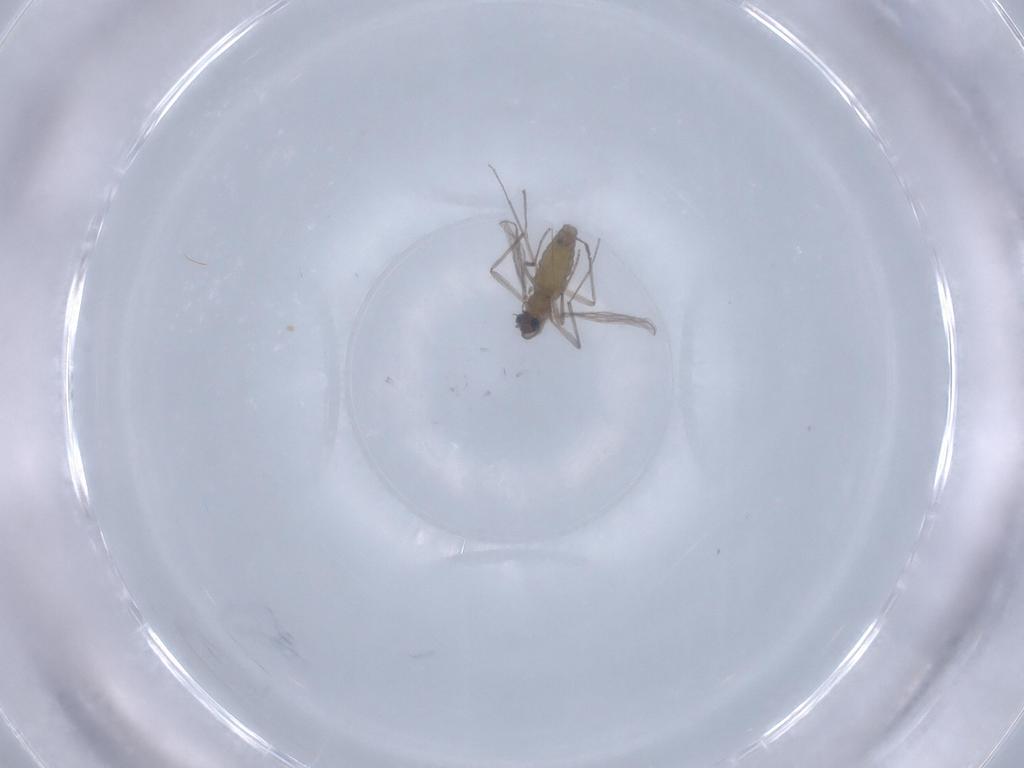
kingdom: Animalia
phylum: Arthropoda
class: Insecta
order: Diptera
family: Chironomidae
